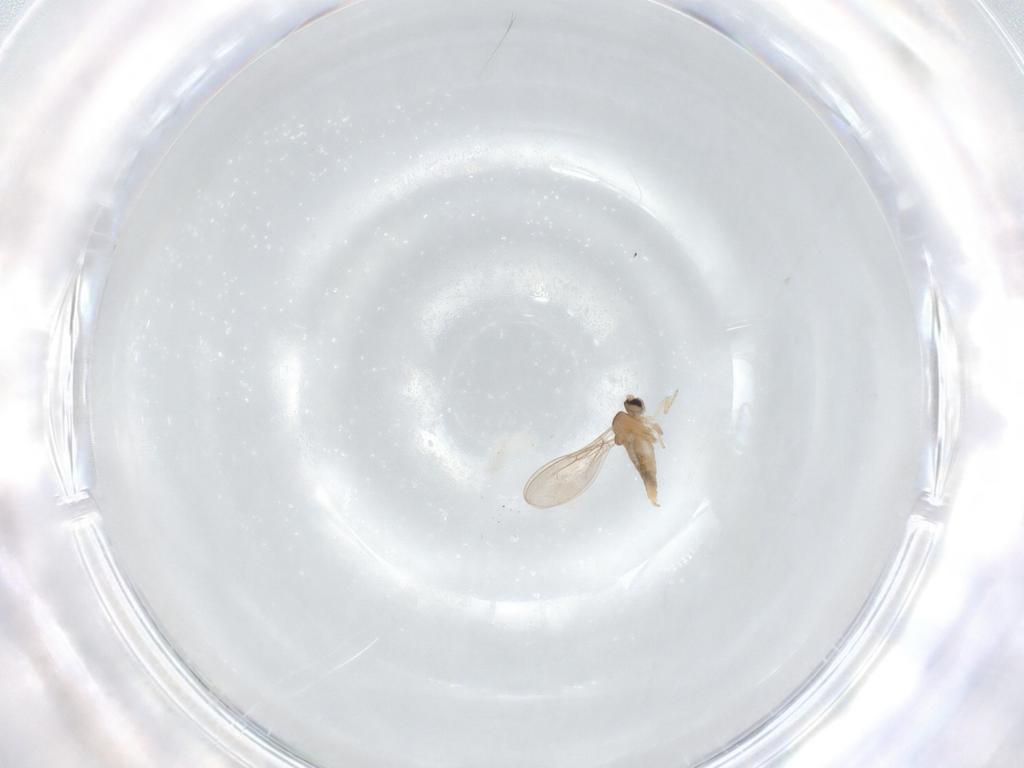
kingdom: Animalia
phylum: Arthropoda
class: Insecta
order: Diptera
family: Cecidomyiidae
